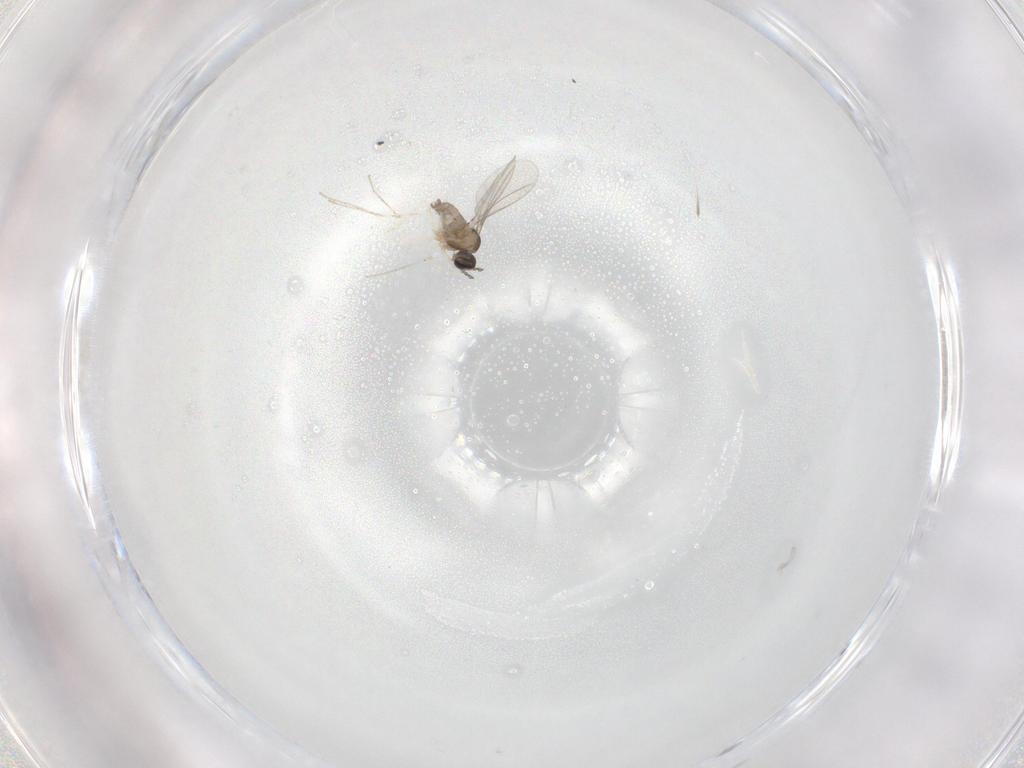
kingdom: Animalia
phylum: Arthropoda
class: Insecta
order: Diptera
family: Cecidomyiidae
